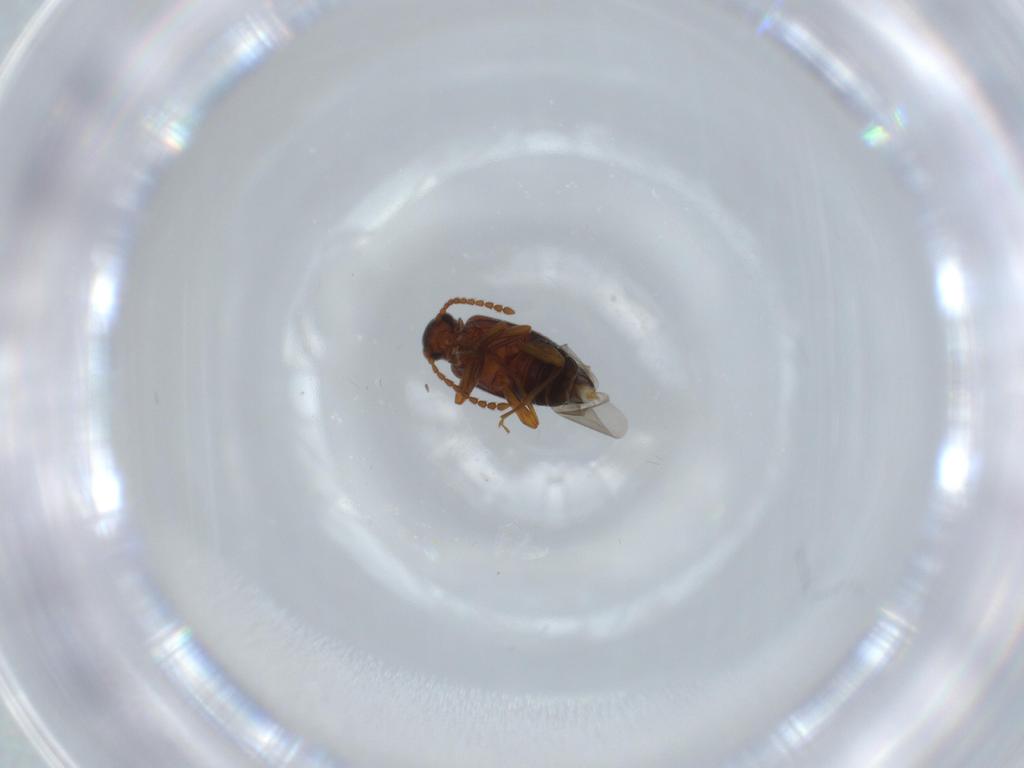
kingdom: Animalia
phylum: Arthropoda
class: Insecta
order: Coleoptera
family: Aderidae
